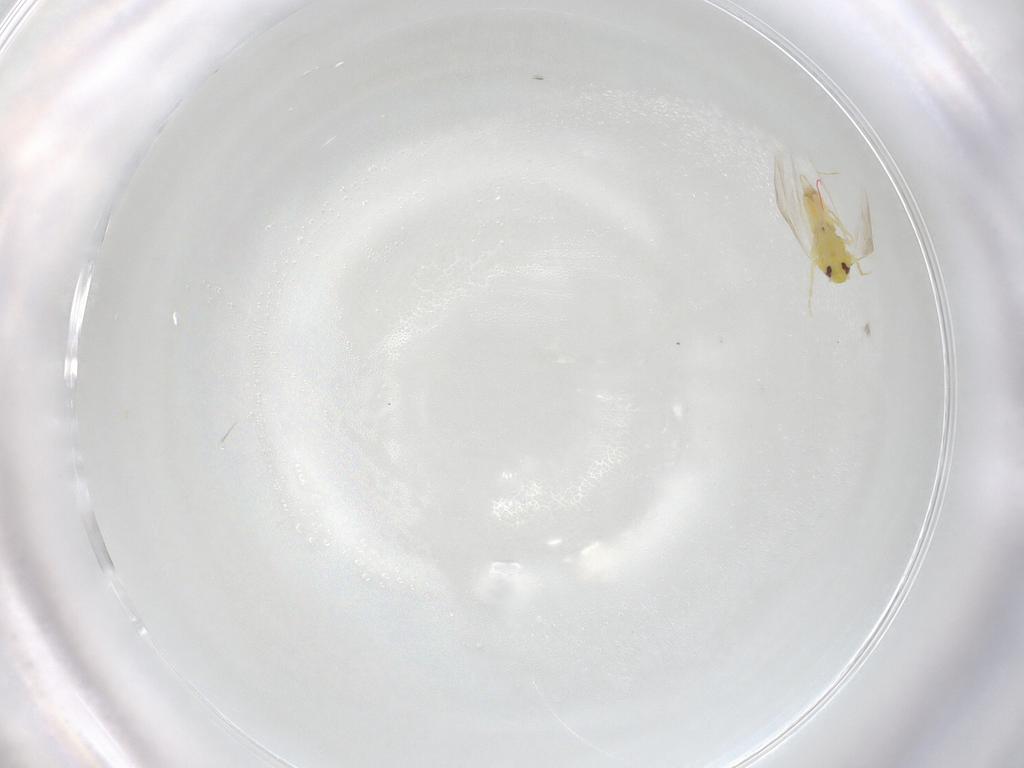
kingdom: Animalia
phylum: Arthropoda
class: Insecta
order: Hemiptera
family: Aleyrodidae
